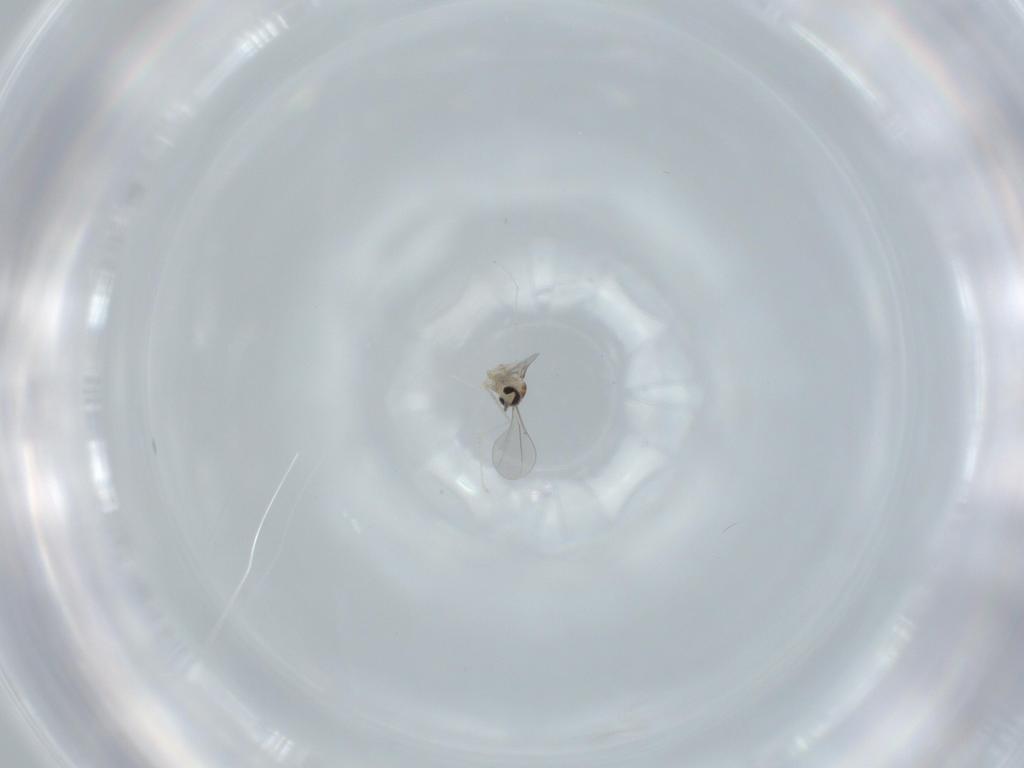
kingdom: Animalia
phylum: Arthropoda
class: Insecta
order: Diptera
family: Cecidomyiidae
